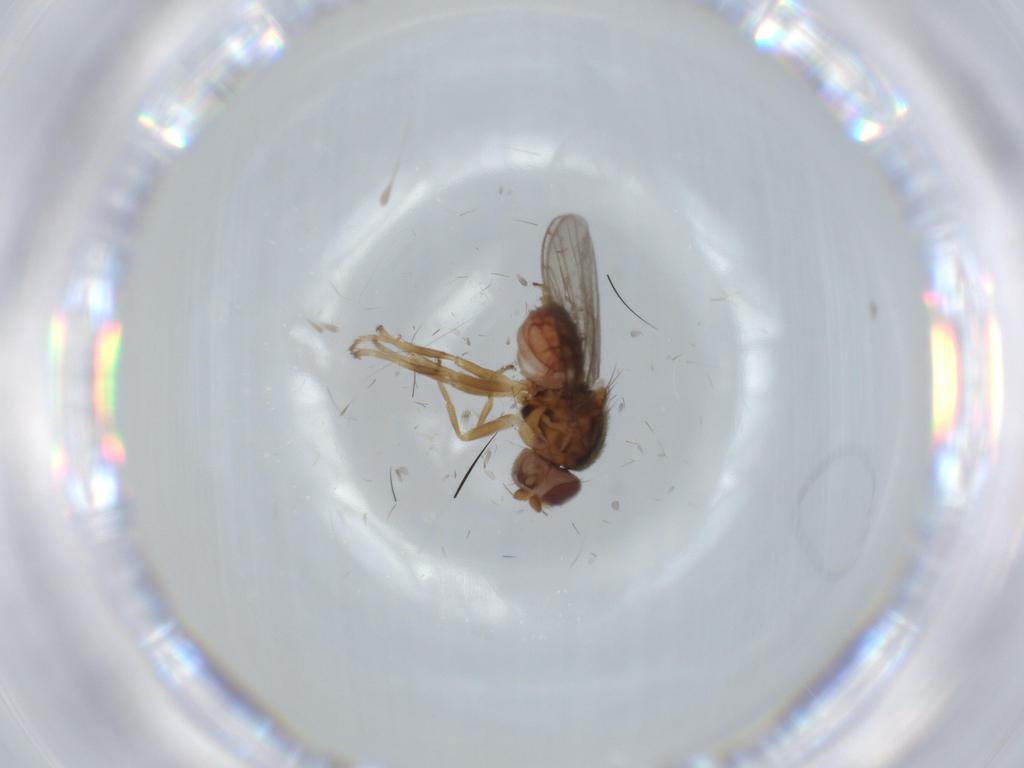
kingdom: Animalia
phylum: Arthropoda
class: Insecta
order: Diptera
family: Chloropidae
